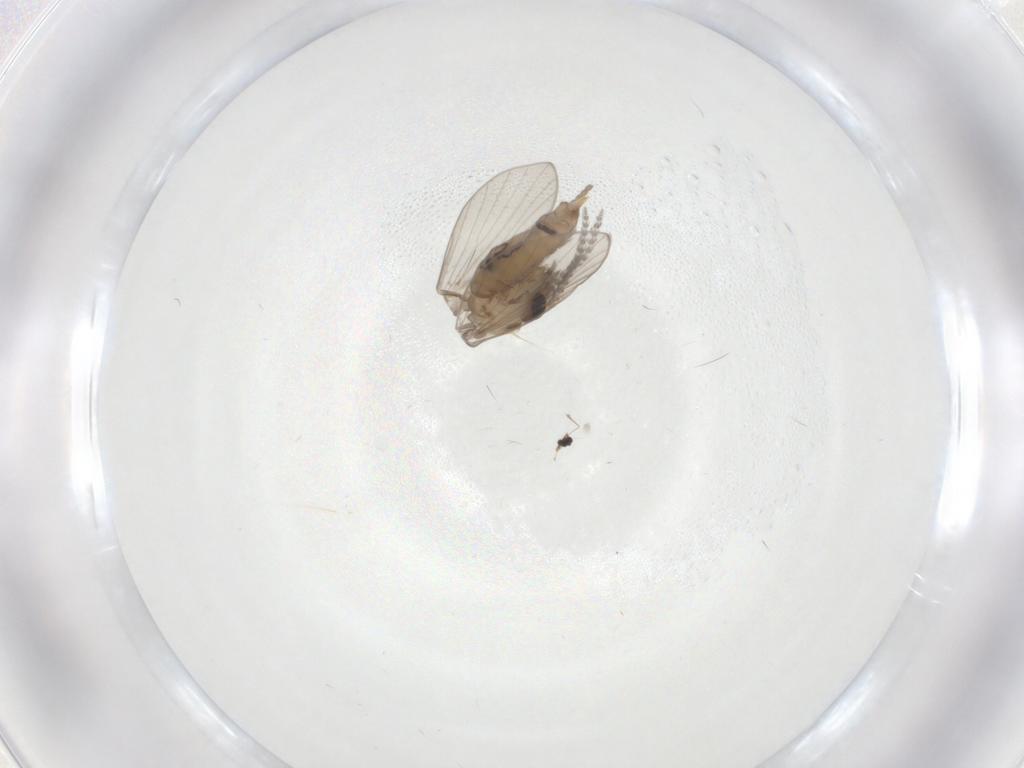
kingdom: Animalia
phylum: Arthropoda
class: Insecta
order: Diptera
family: Psychodidae
